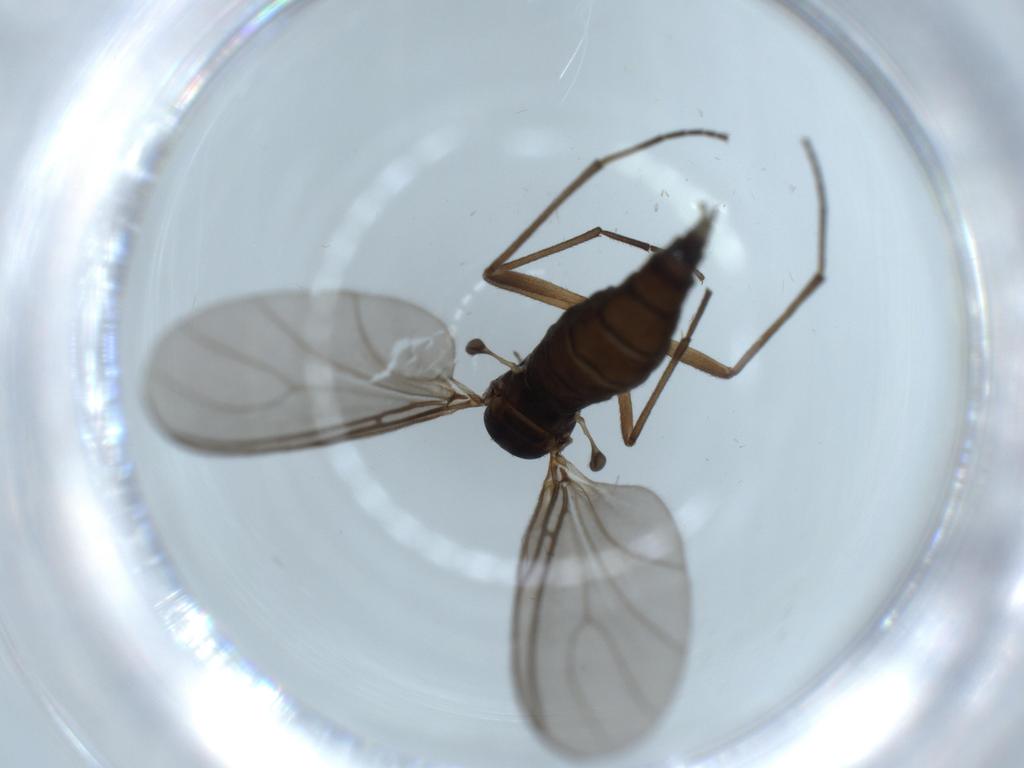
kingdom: Animalia
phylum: Arthropoda
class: Insecta
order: Diptera
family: Sciaridae
